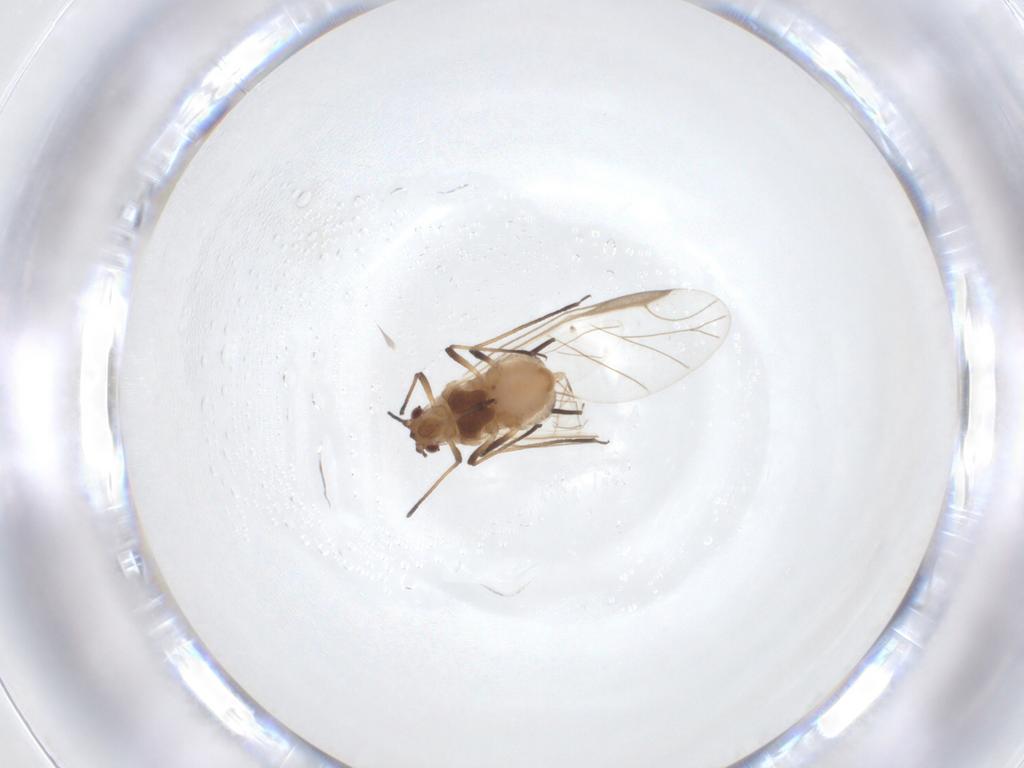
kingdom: Animalia
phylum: Arthropoda
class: Insecta
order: Hemiptera
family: Aphididae
